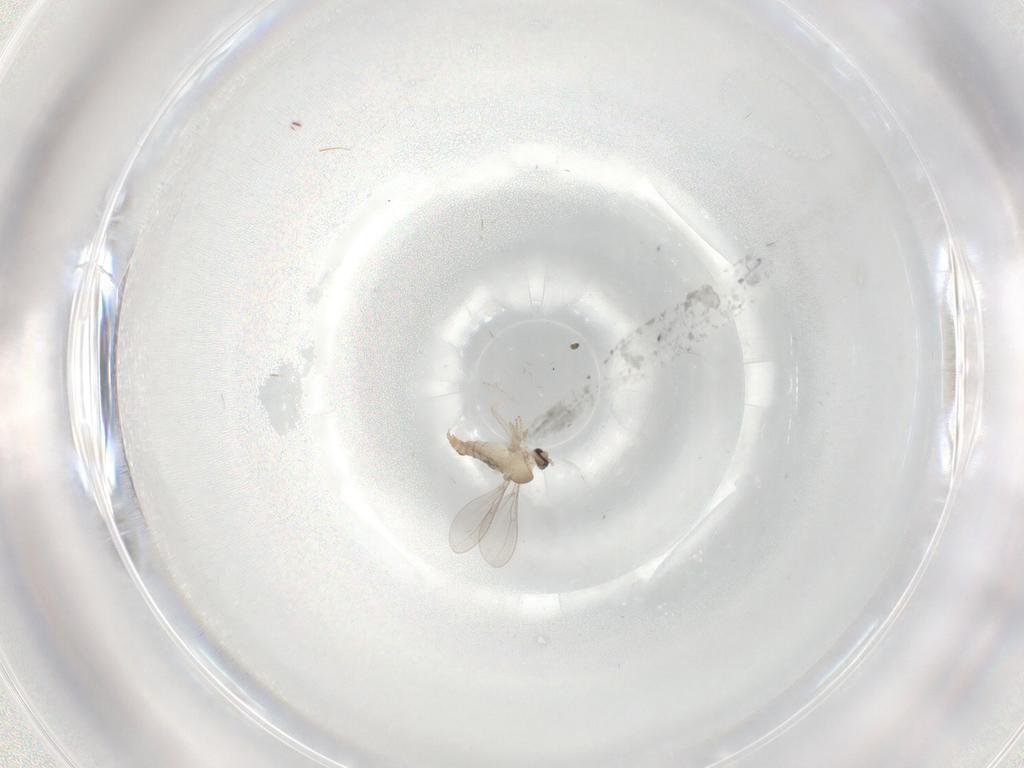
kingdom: Animalia
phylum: Arthropoda
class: Insecta
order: Diptera
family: Cecidomyiidae
